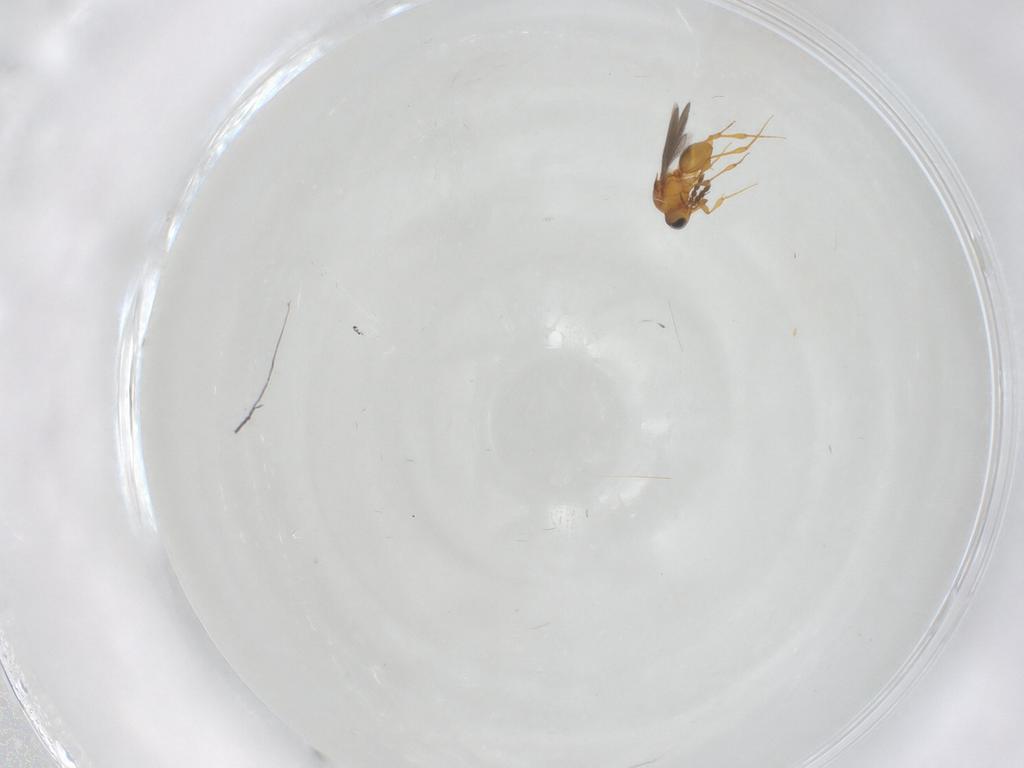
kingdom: Animalia
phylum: Arthropoda
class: Insecta
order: Hymenoptera
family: Platygastridae
